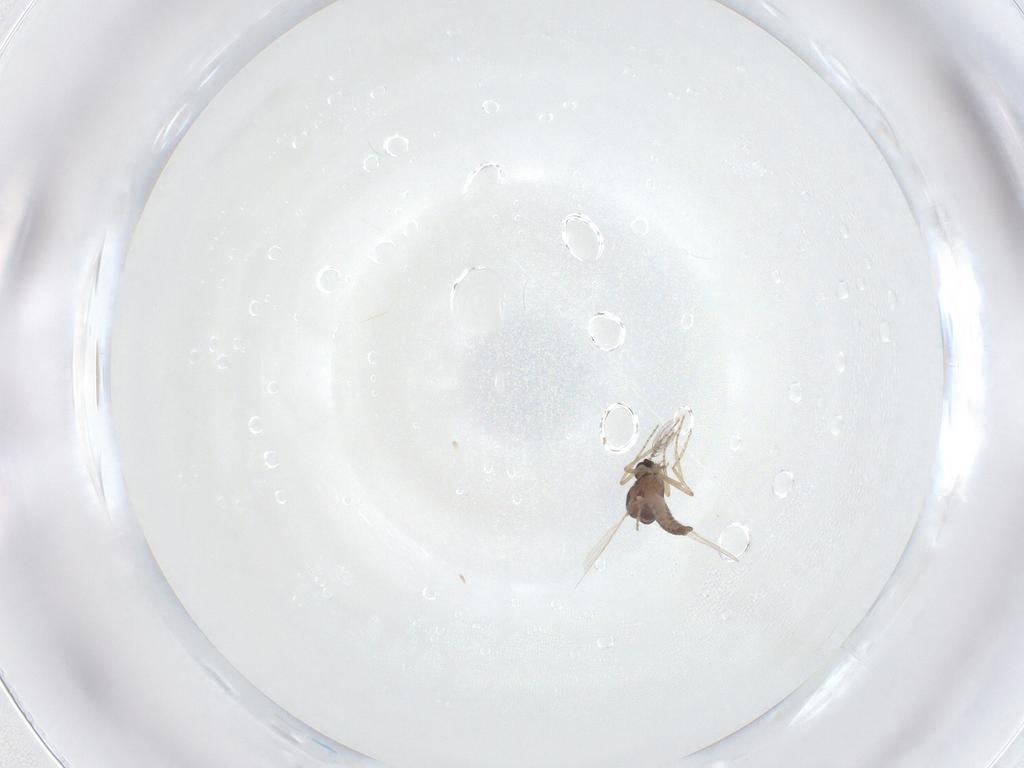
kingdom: Animalia
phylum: Arthropoda
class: Insecta
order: Diptera
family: Ceratopogonidae
